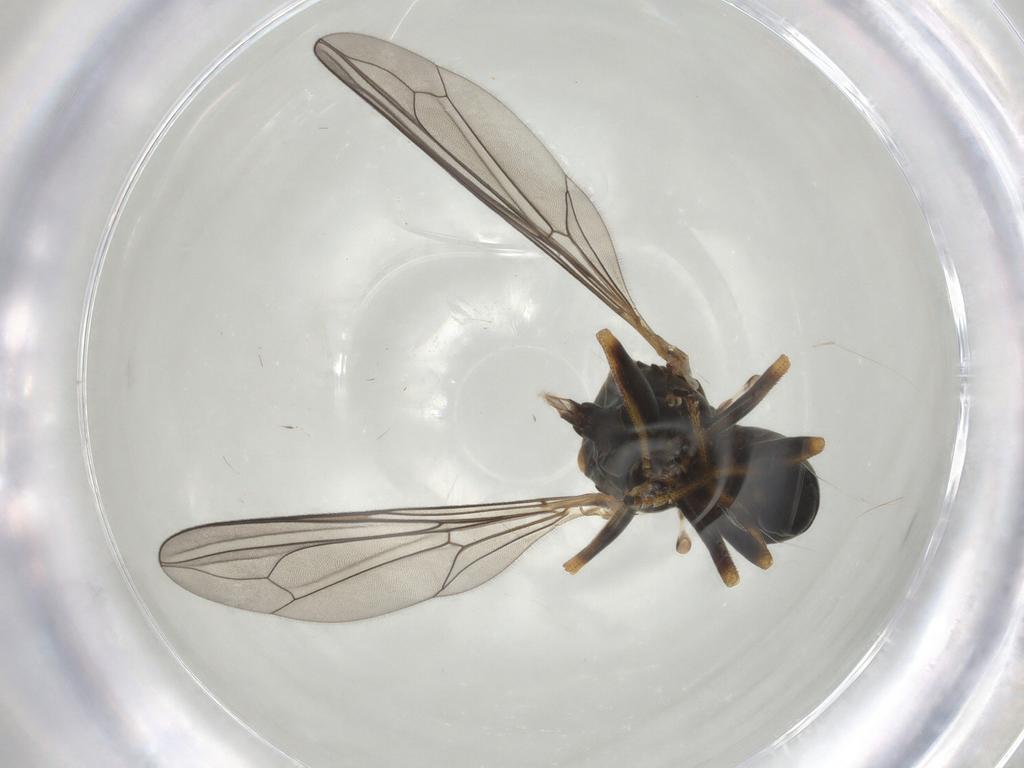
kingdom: Animalia
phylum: Arthropoda
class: Insecta
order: Diptera
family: Pipunculidae
